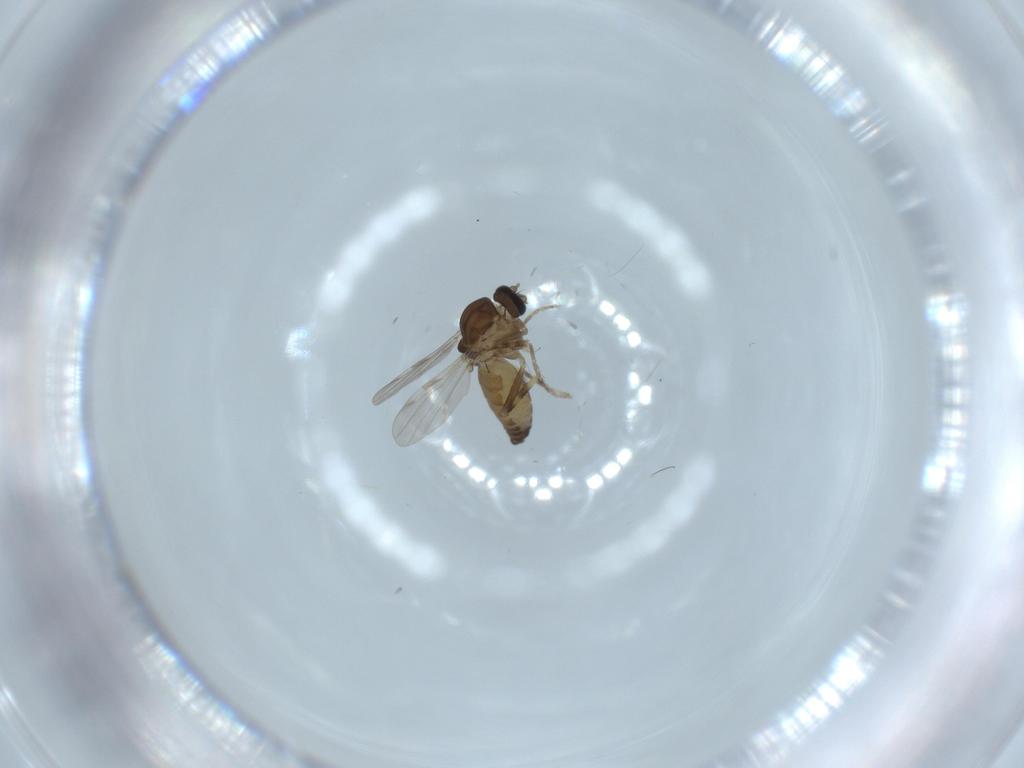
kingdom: Animalia
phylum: Arthropoda
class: Insecta
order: Diptera
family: Ceratopogonidae
